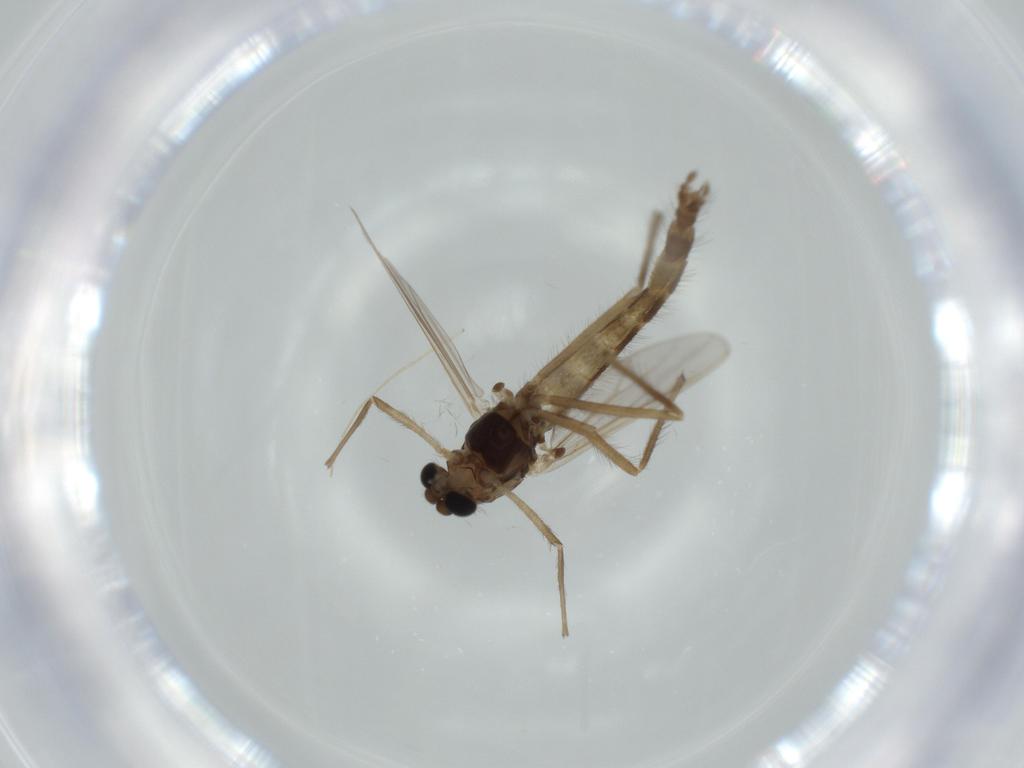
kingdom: Animalia
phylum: Arthropoda
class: Insecta
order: Diptera
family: Chironomidae
